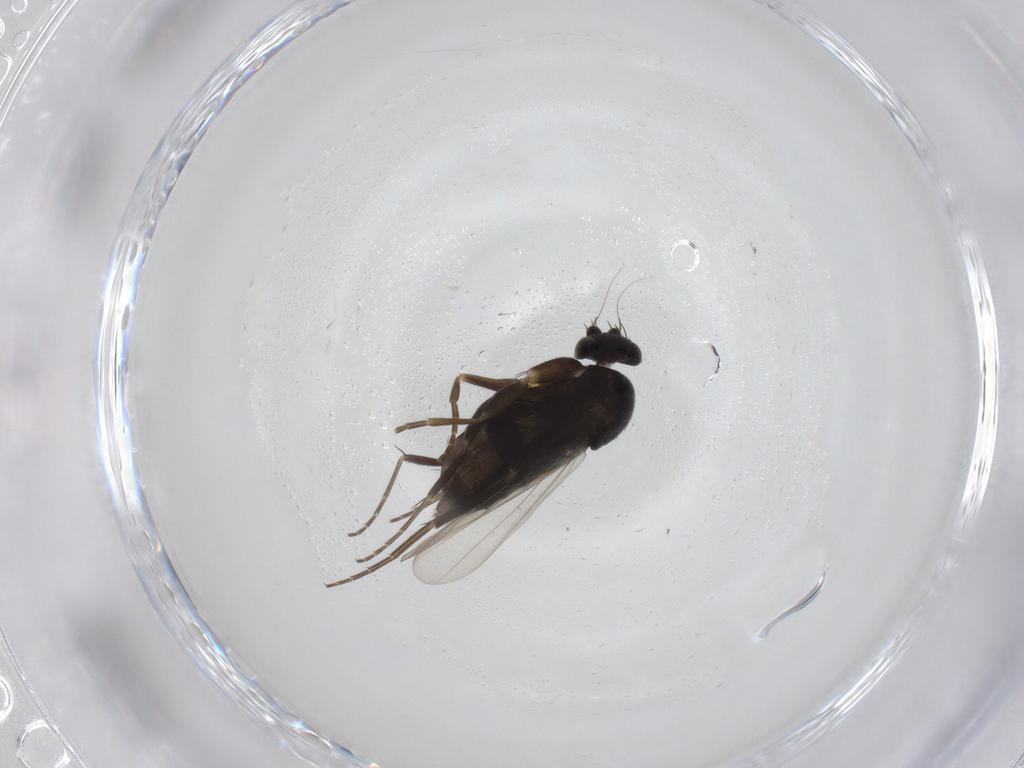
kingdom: Animalia
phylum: Arthropoda
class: Insecta
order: Diptera
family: Phoridae
